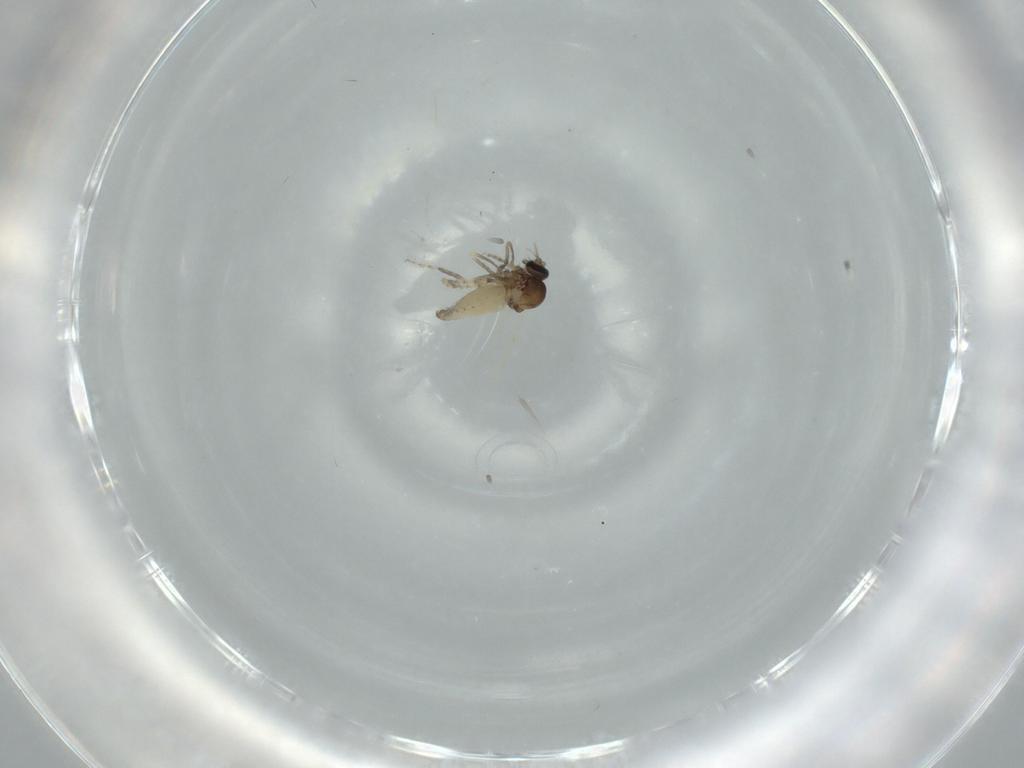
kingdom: Animalia
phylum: Arthropoda
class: Insecta
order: Diptera
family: Ceratopogonidae
